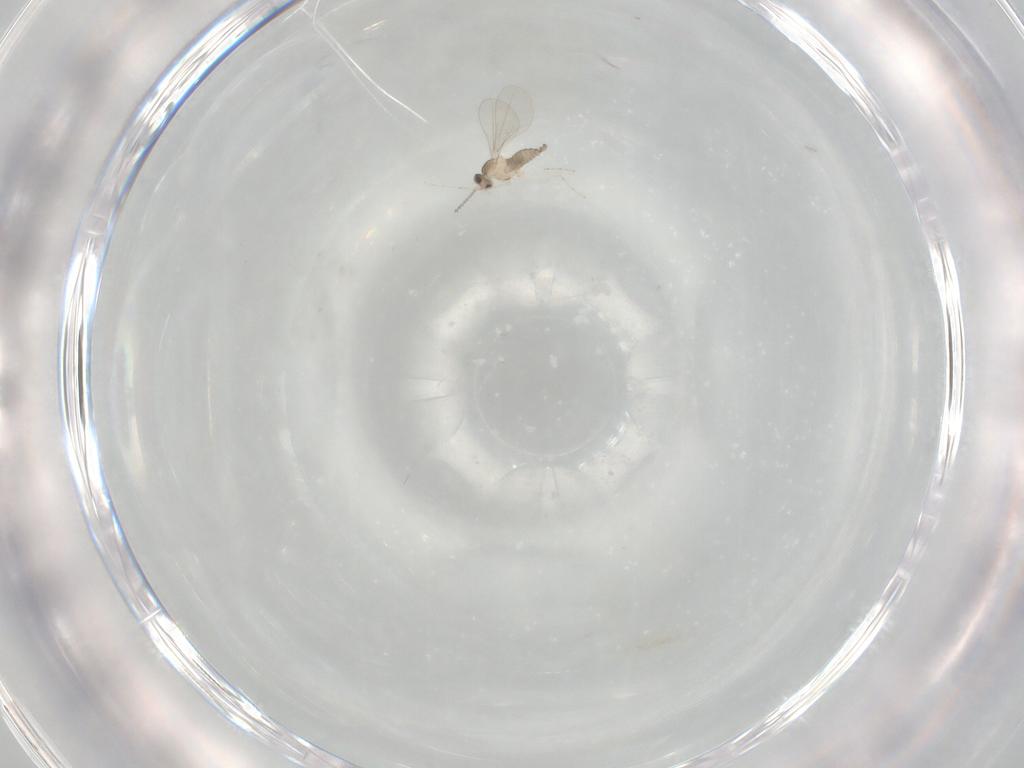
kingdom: Animalia
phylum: Arthropoda
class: Insecta
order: Diptera
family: Cecidomyiidae
